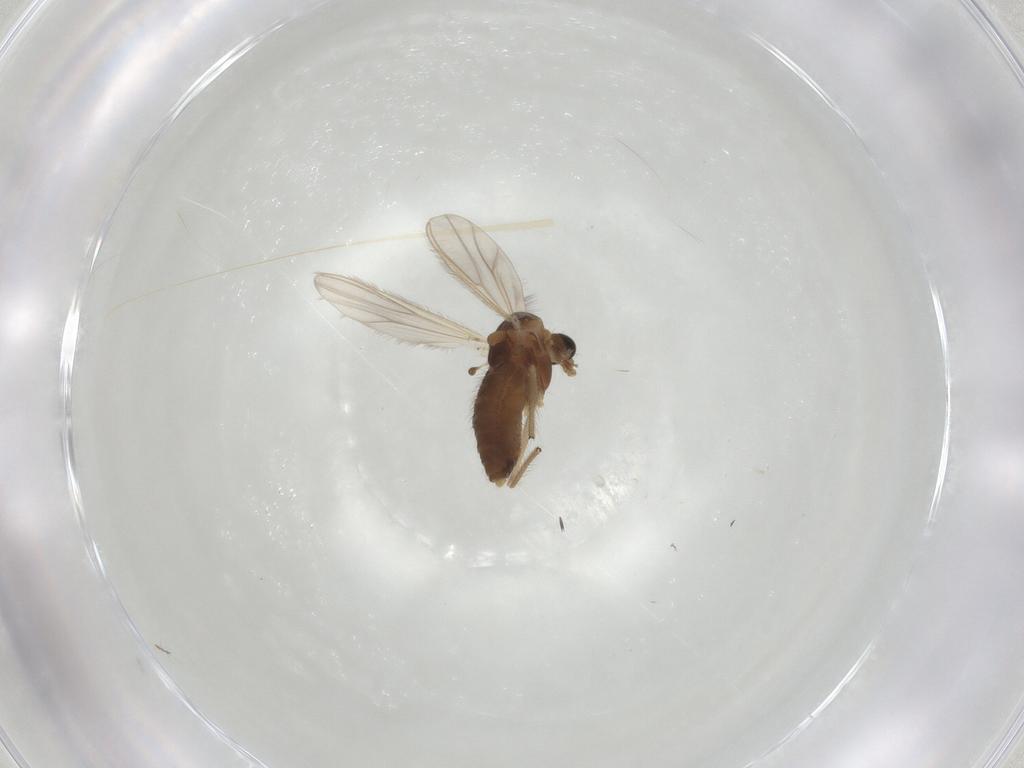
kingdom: Animalia
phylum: Arthropoda
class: Insecta
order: Diptera
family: Chironomidae
